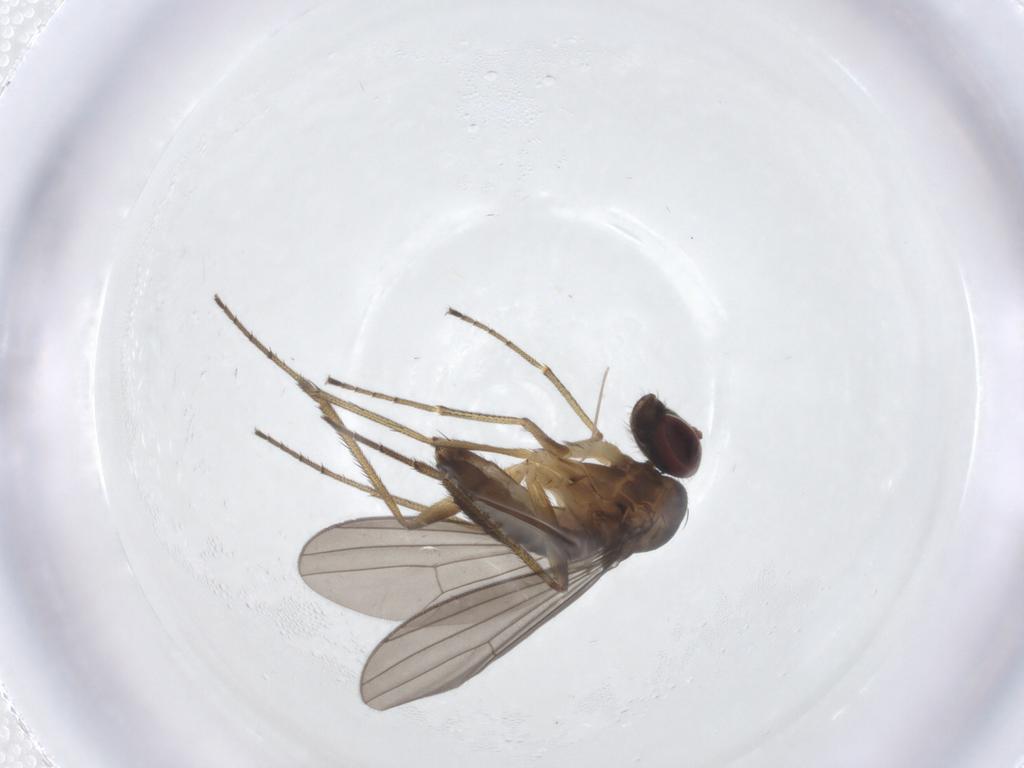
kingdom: Animalia
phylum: Arthropoda
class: Insecta
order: Diptera
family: Dolichopodidae
